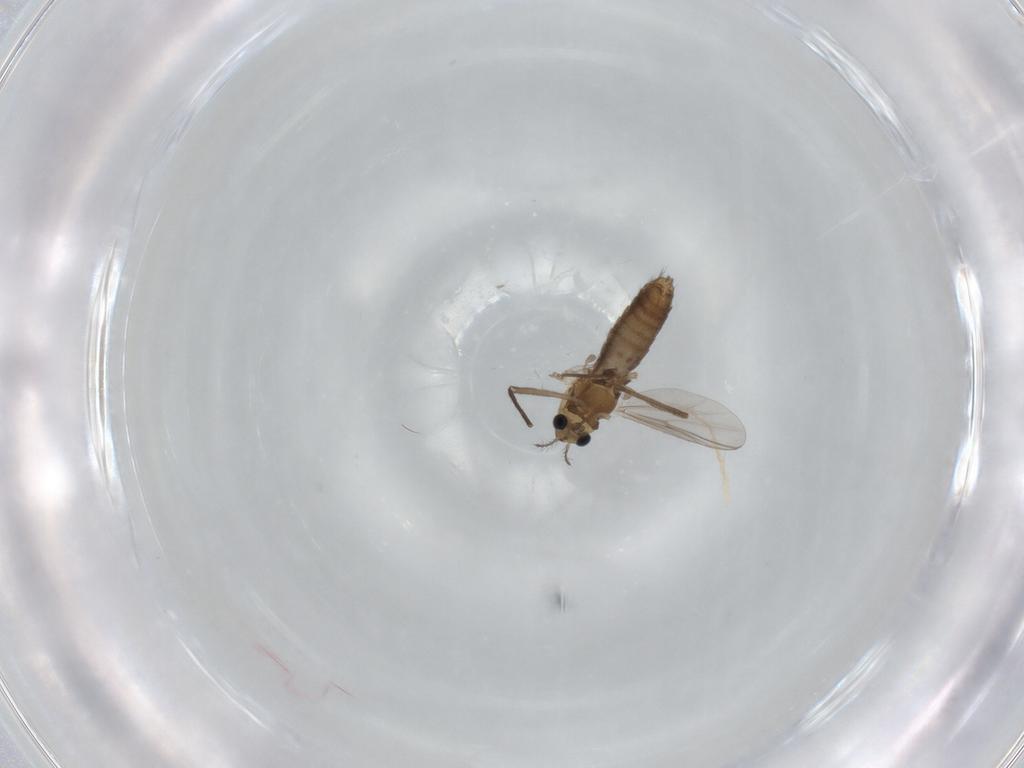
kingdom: Animalia
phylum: Arthropoda
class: Insecta
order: Diptera
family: Chironomidae
